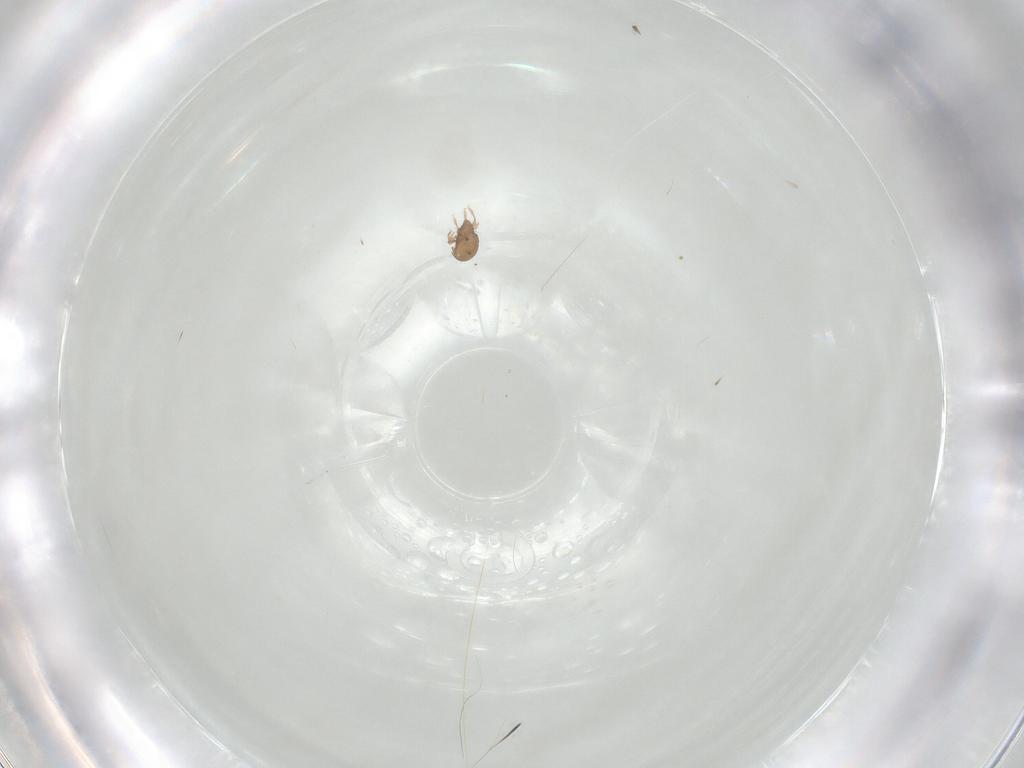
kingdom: Animalia
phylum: Arthropoda
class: Arachnida
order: Sarcoptiformes
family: Oribatulidae
